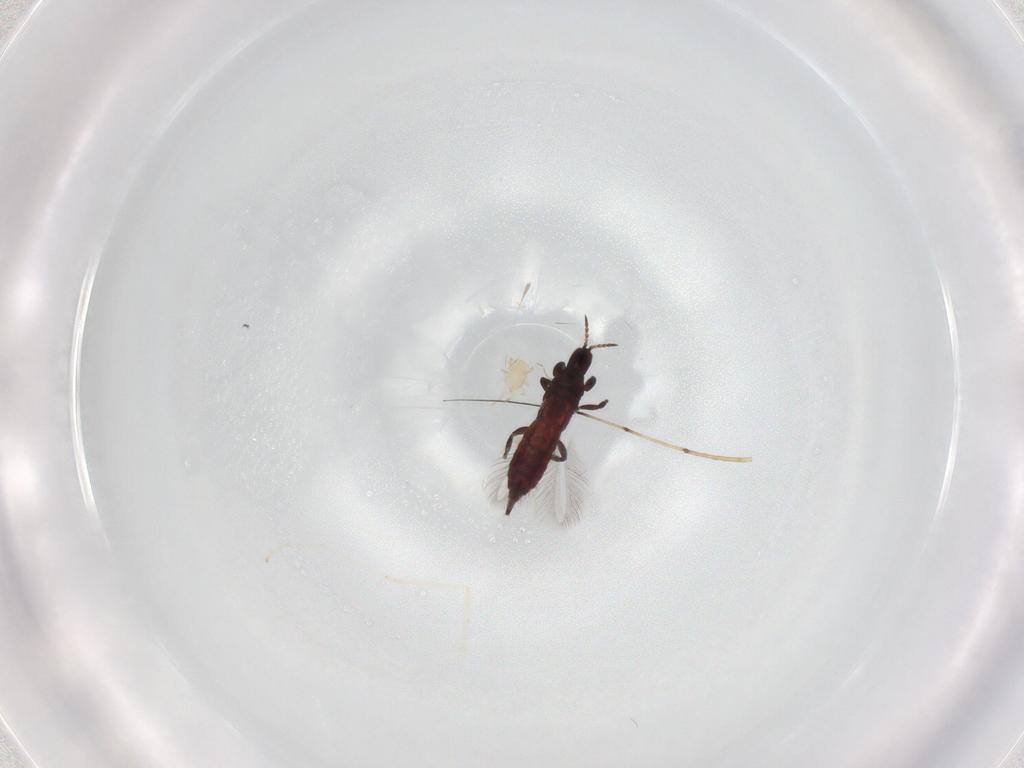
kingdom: Animalia
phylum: Arthropoda
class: Insecta
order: Thysanoptera
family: Phlaeothripidae
